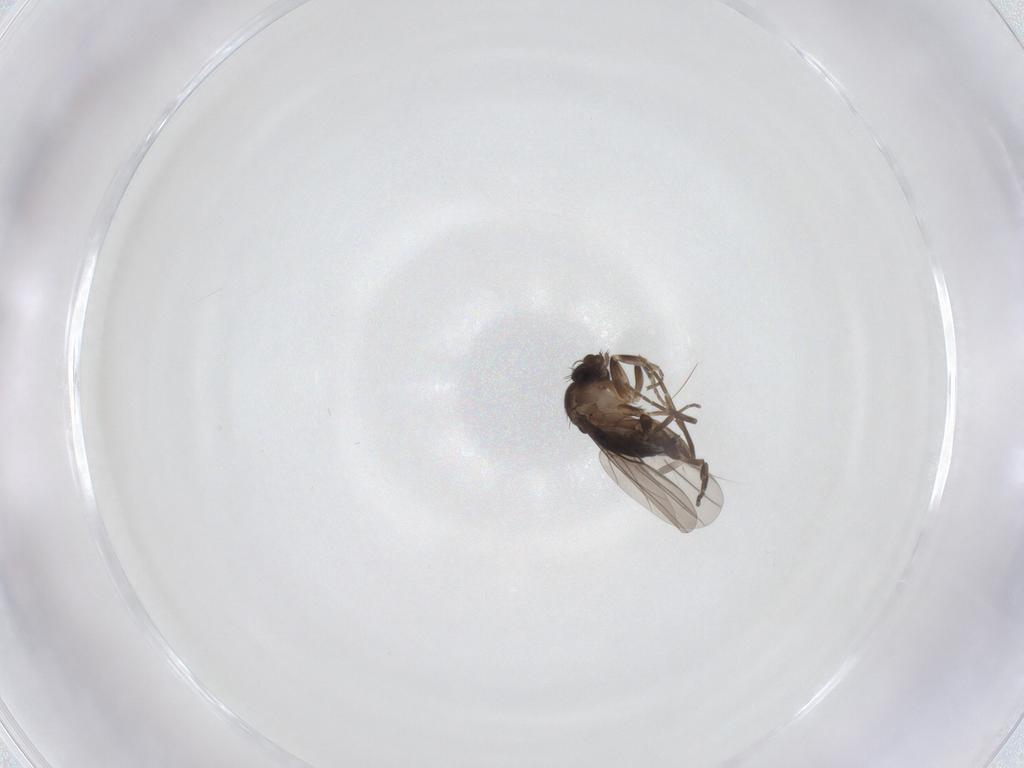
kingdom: Animalia
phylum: Arthropoda
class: Insecta
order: Diptera
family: Chironomidae
